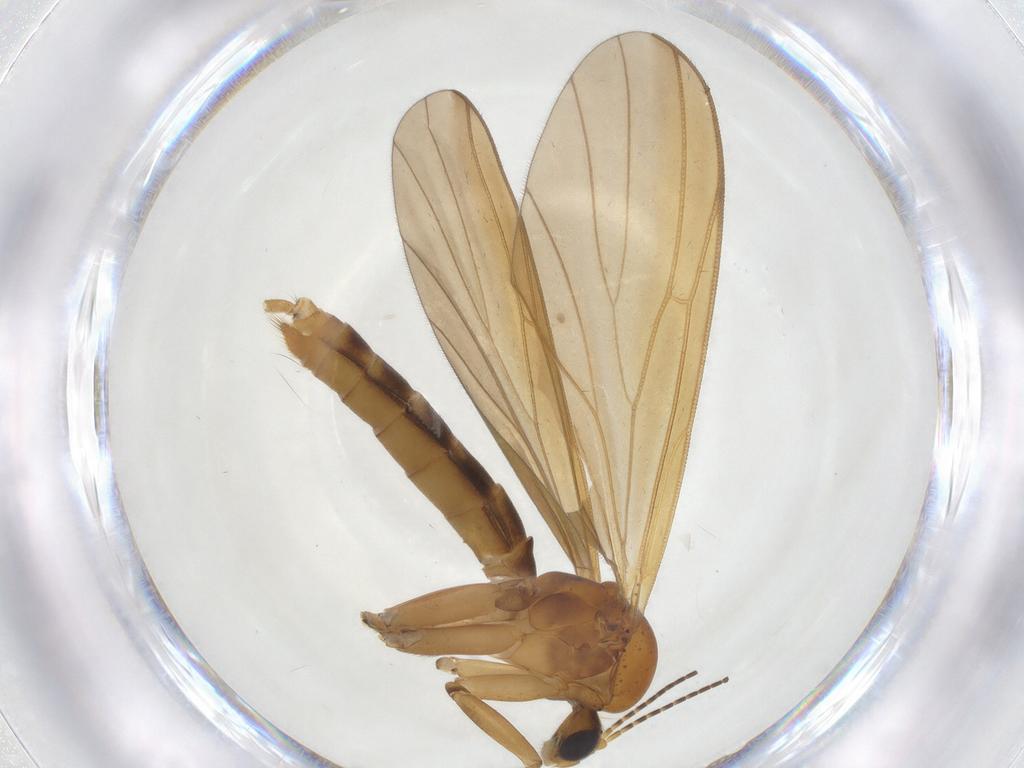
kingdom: Animalia
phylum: Arthropoda
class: Insecta
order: Diptera
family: Mycetophilidae
